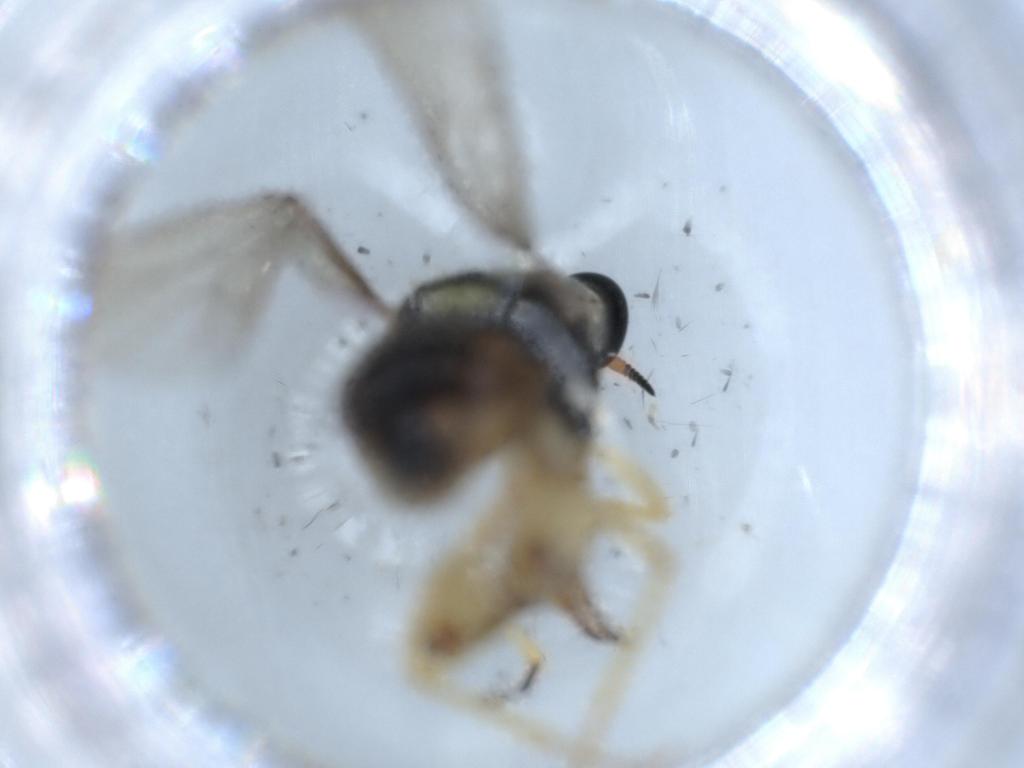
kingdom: Animalia
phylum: Arthropoda
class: Insecta
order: Diptera
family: Sciaridae
